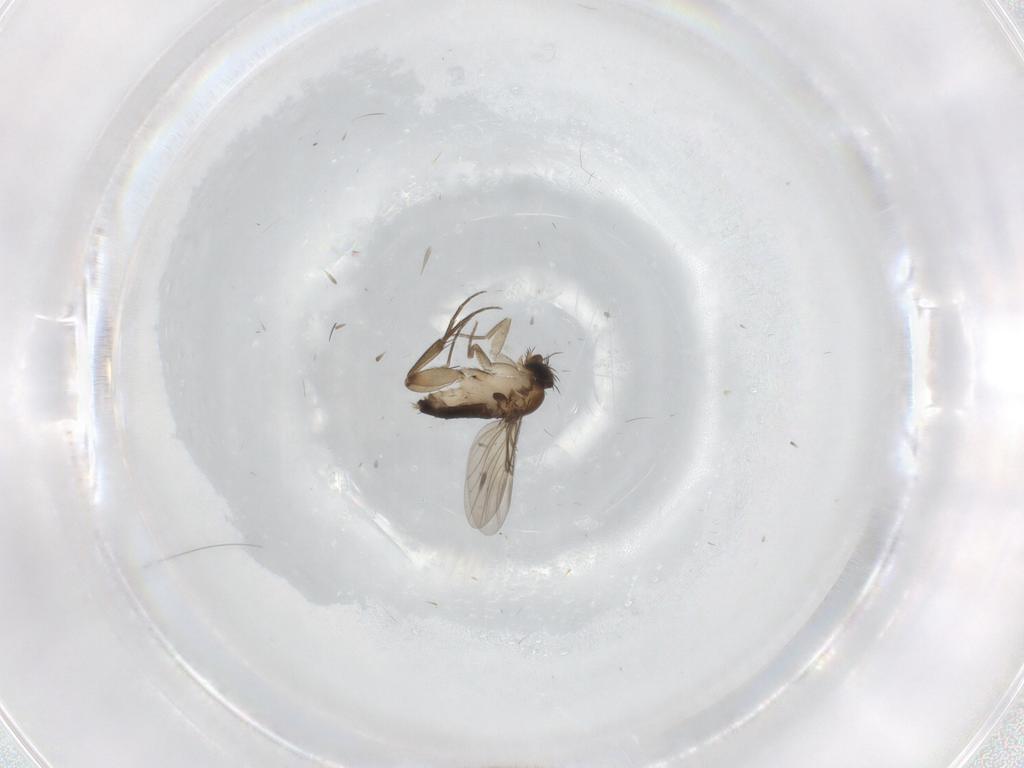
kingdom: Animalia
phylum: Arthropoda
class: Insecta
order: Diptera
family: Phoridae
